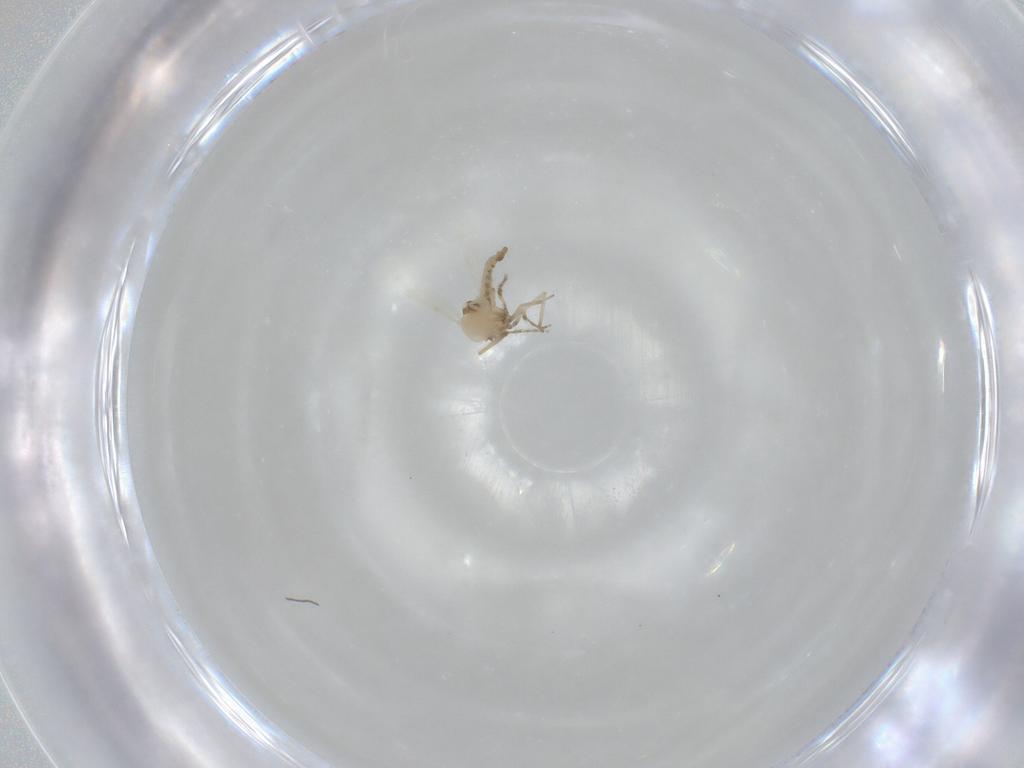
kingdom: Animalia
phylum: Arthropoda
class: Insecta
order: Diptera
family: Ceratopogonidae
